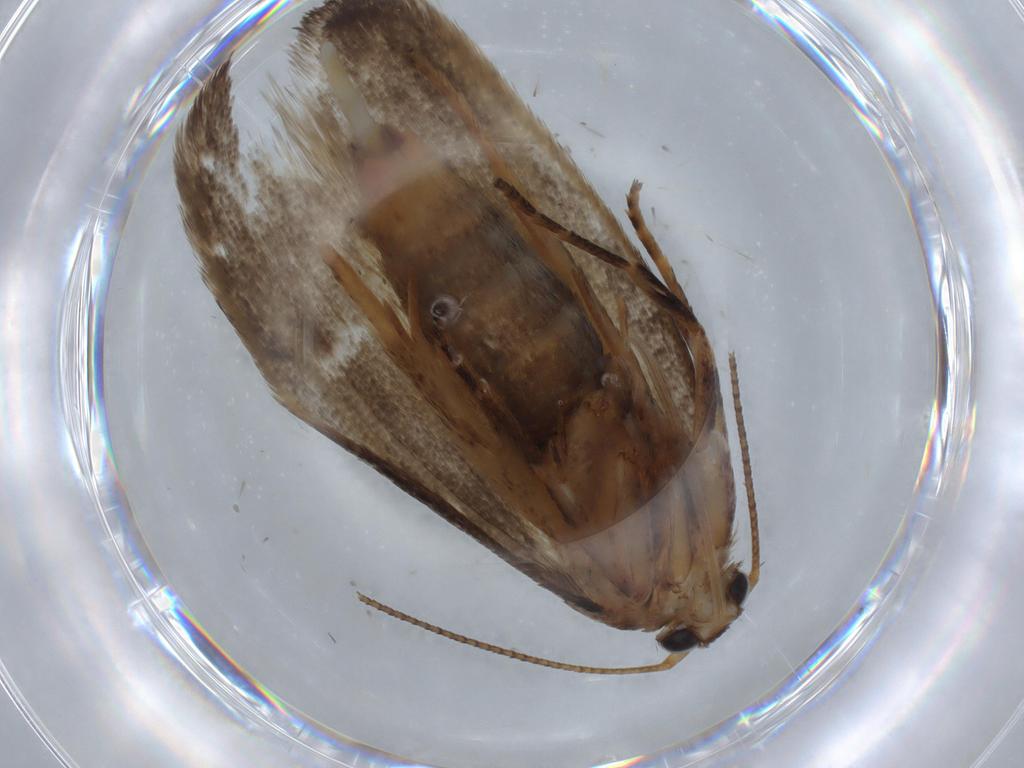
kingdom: Animalia
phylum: Arthropoda
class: Insecta
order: Lepidoptera
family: Oecophoridae
